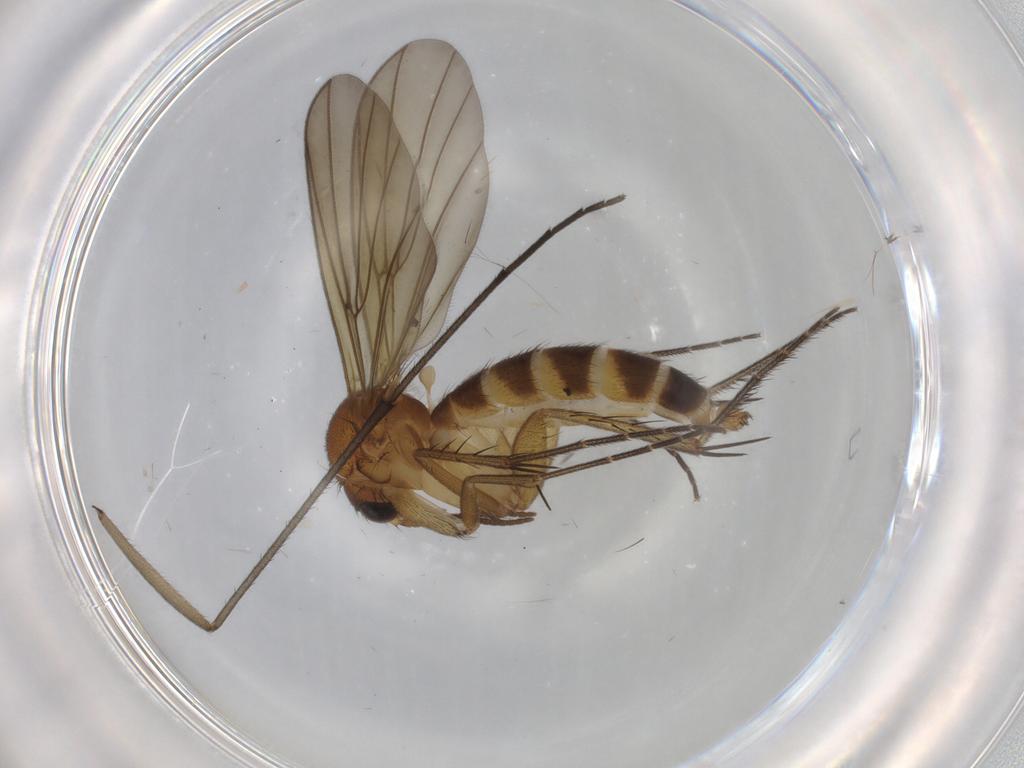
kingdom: Animalia
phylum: Arthropoda
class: Insecta
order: Diptera
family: Mycetophilidae
